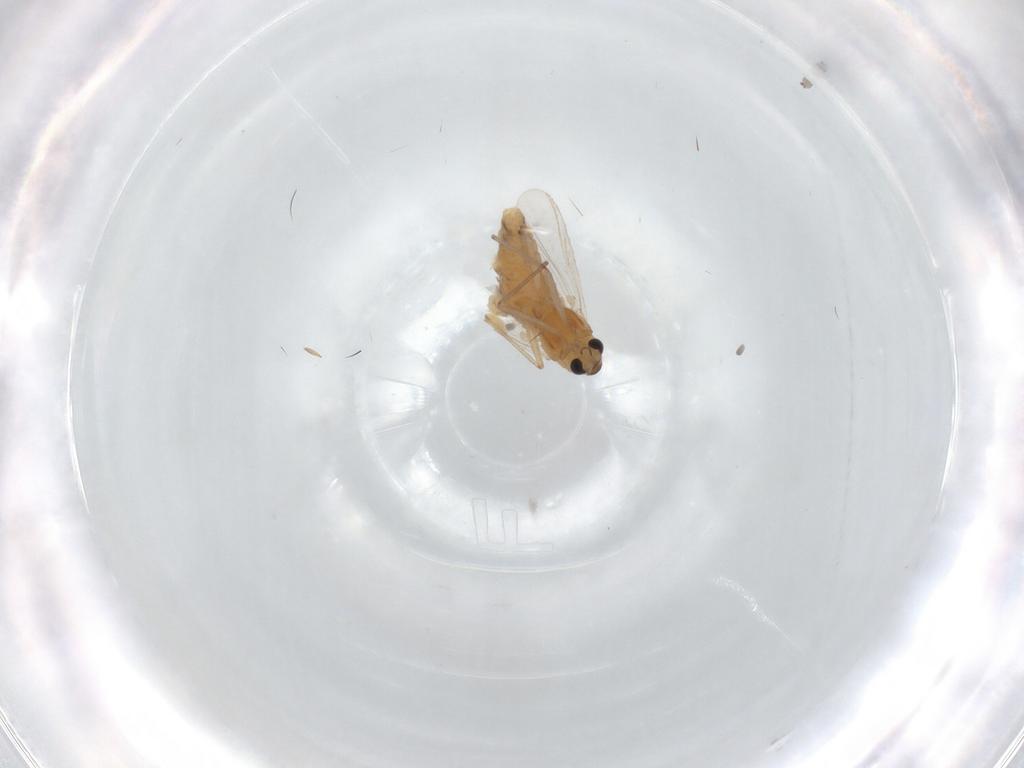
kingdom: Animalia
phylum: Arthropoda
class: Insecta
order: Diptera
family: Chironomidae
